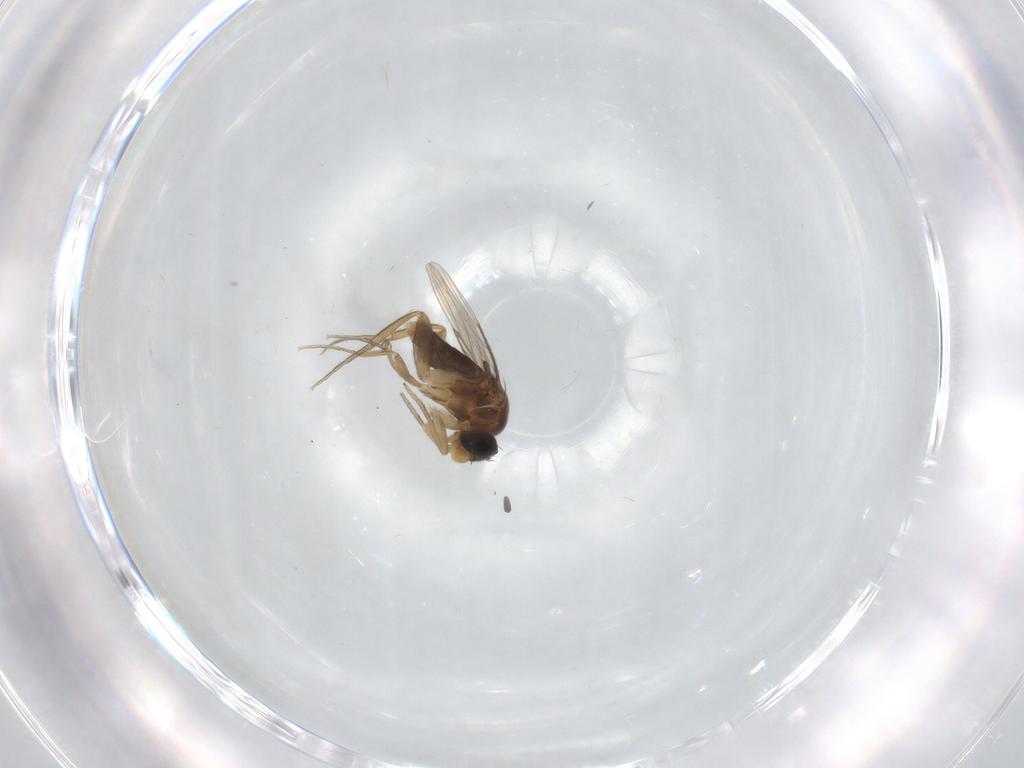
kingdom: Animalia
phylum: Arthropoda
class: Insecta
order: Diptera
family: Phoridae
